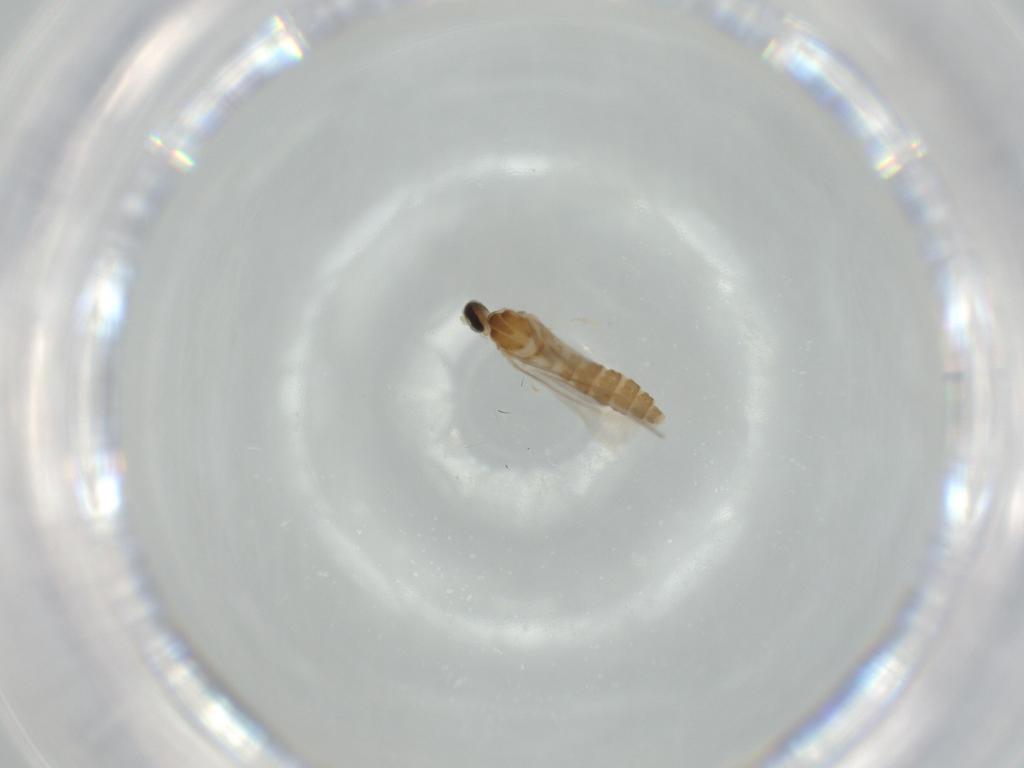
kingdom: Animalia
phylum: Arthropoda
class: Insecta
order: Diptera
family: Cecidomyiidae
